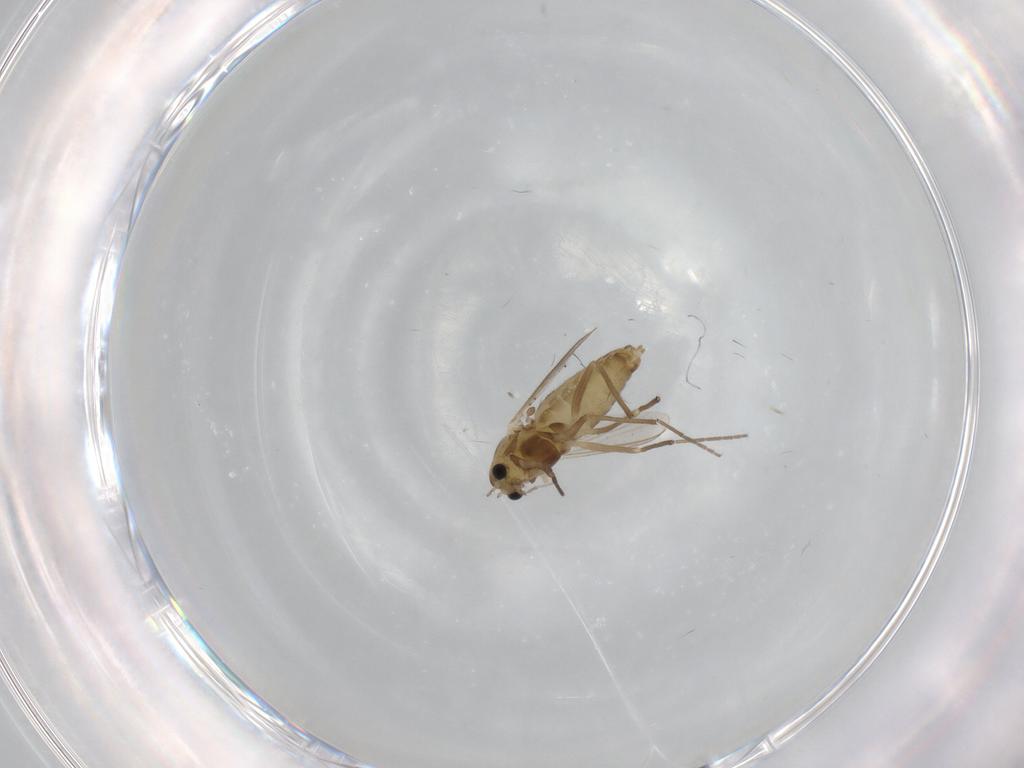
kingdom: Animalia
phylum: Arthropoda
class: Insecta
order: Diptera
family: Chironomidae
